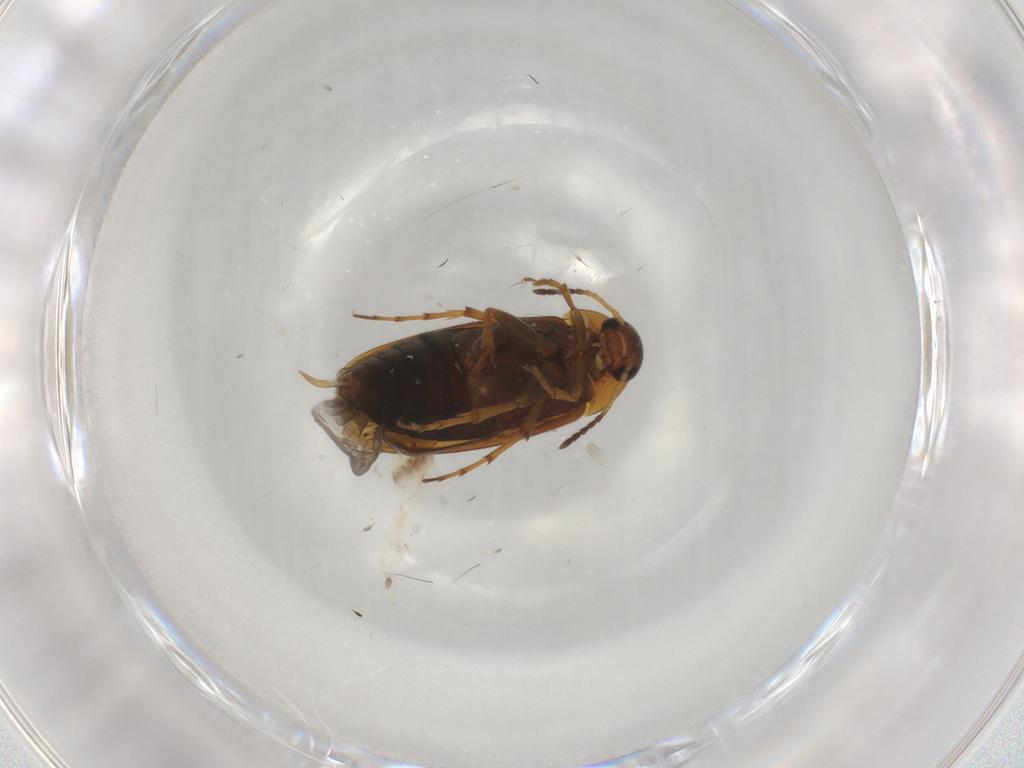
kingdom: Animalia
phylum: Arthropoda
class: Insecta
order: Coleoptera
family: Scraptiidae
